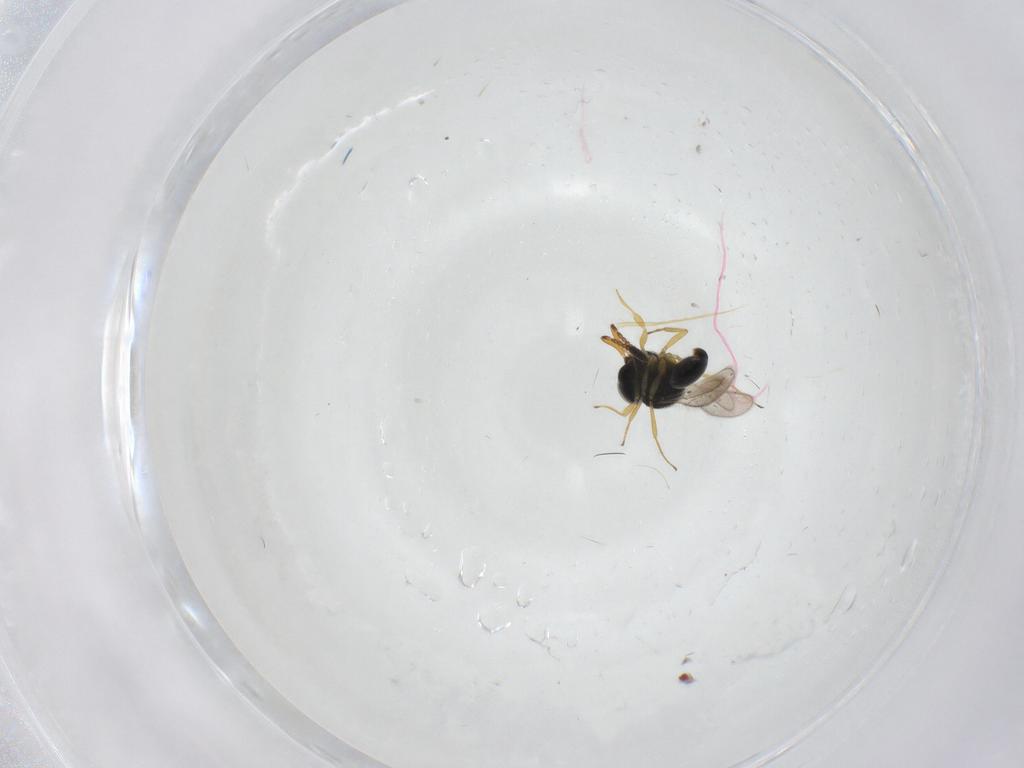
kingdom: Animalia
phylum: Arthropoda
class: Insecta
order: Hymenoptera
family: Scelionidae
